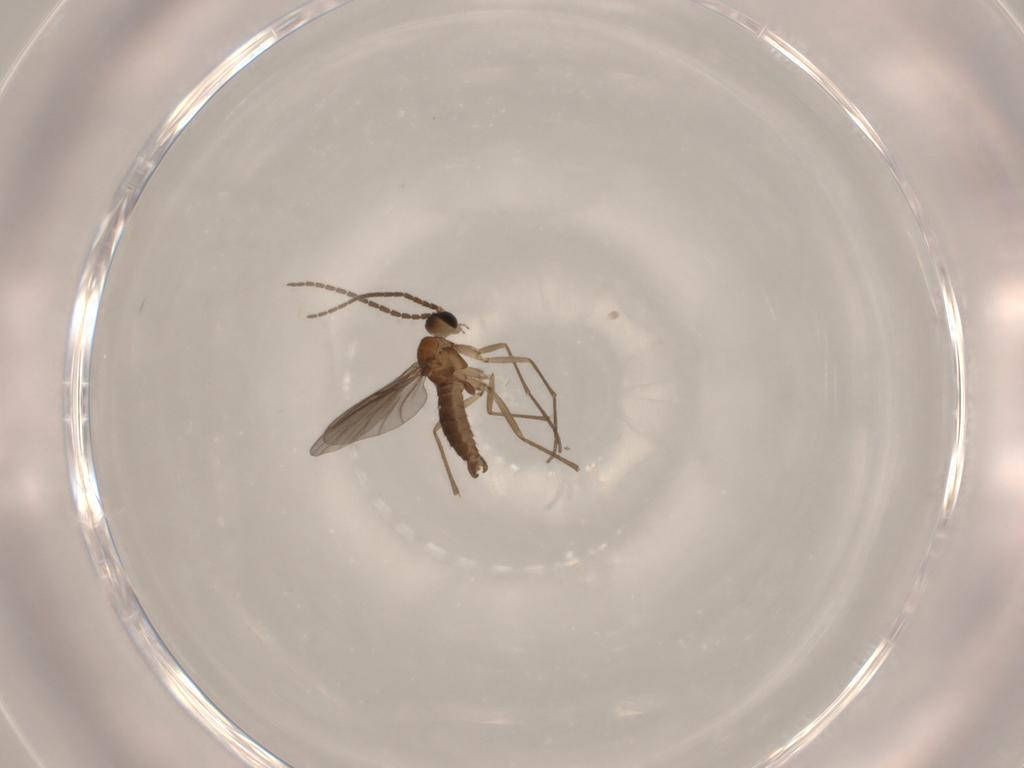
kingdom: Animalia
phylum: Arthropoda
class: Insecta
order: Diptera
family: Sciaridae
